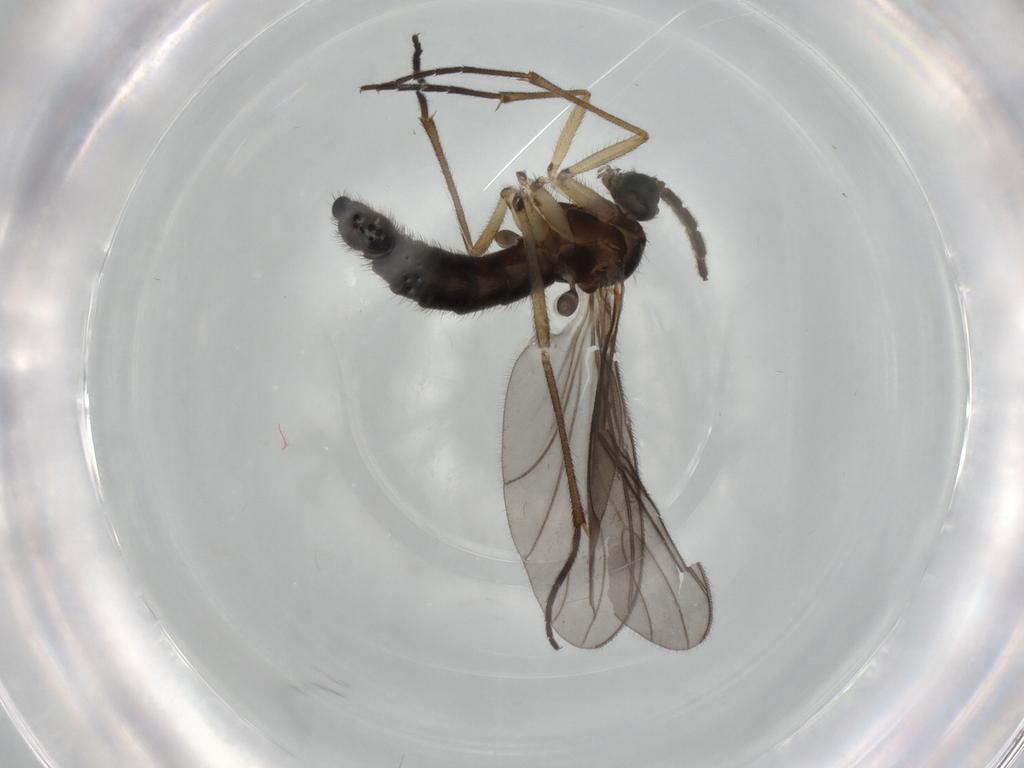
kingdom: Animalia
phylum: Arthropoda
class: Insecta
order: Diptera
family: Sciaridae
